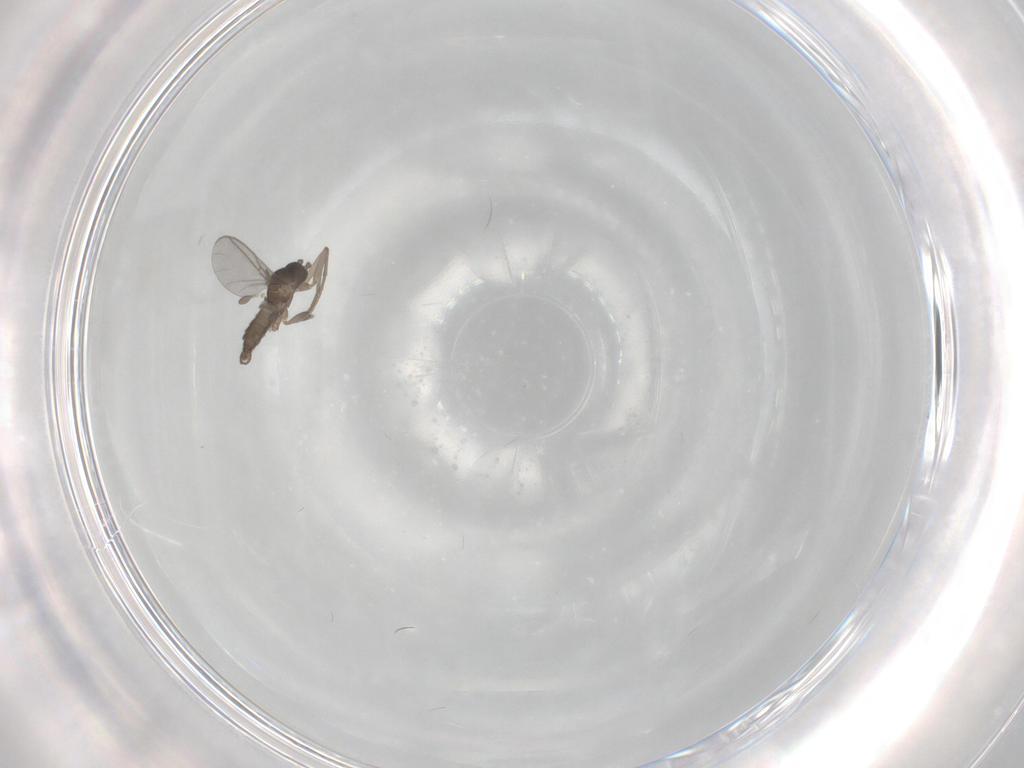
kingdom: Animalia
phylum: Arthropoda
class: Insecta
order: Diptera
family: Sciaridae
